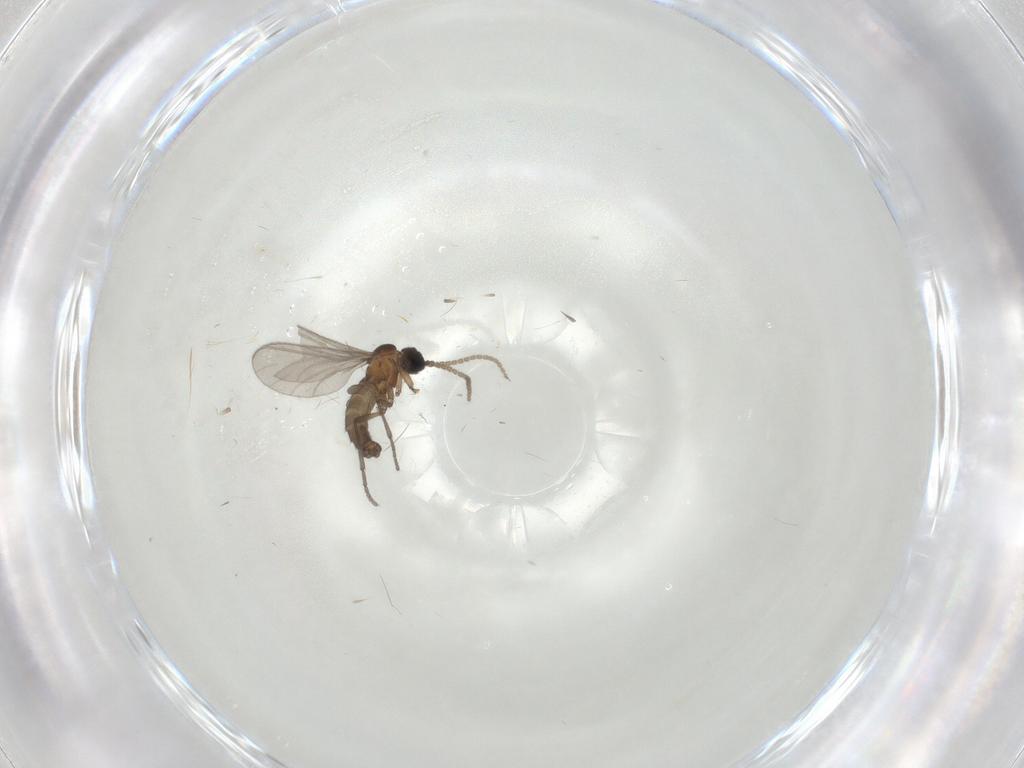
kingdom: Animalia
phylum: Arthropoda
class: Insecta
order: Diptera
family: Sciaridae
